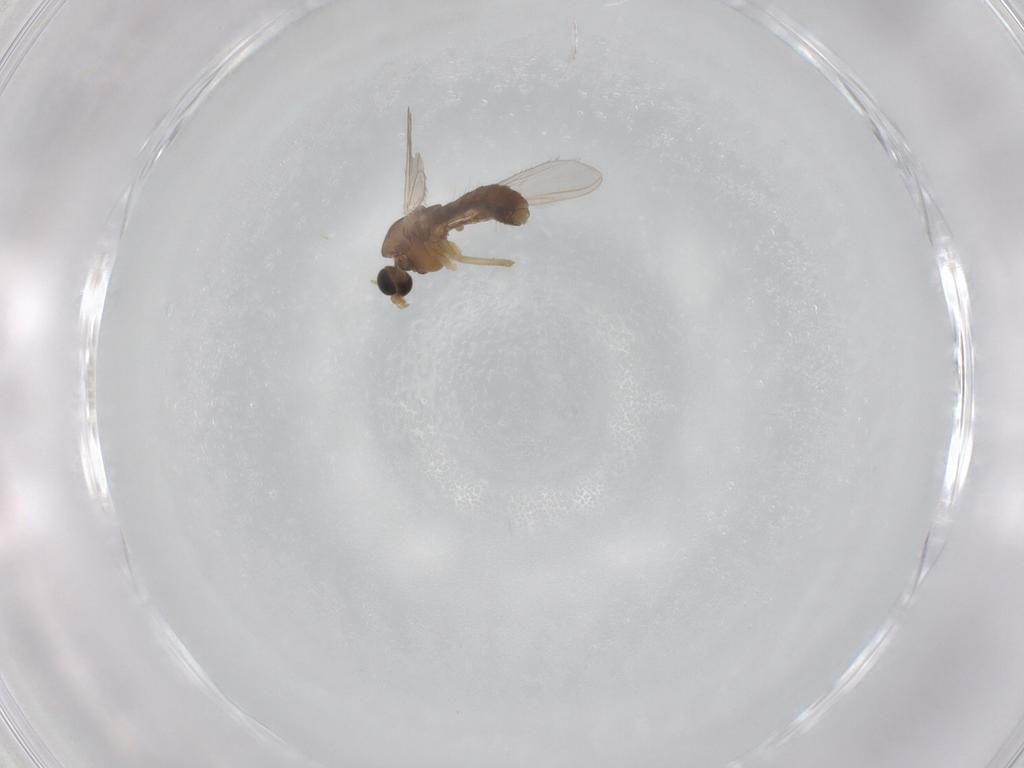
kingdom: Animalia
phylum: Arthropoda
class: Insecta
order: Diptera
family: Chironomidae
